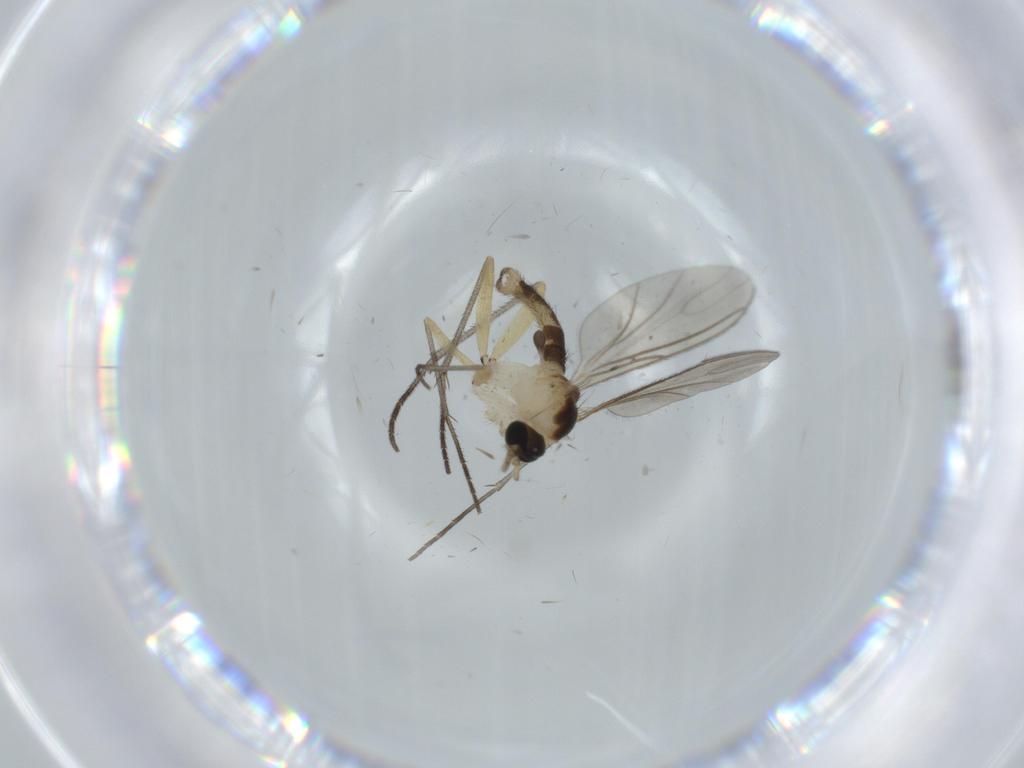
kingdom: Animalia
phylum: Arthropoda
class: Insecta
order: Diptera
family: Sciaridae
